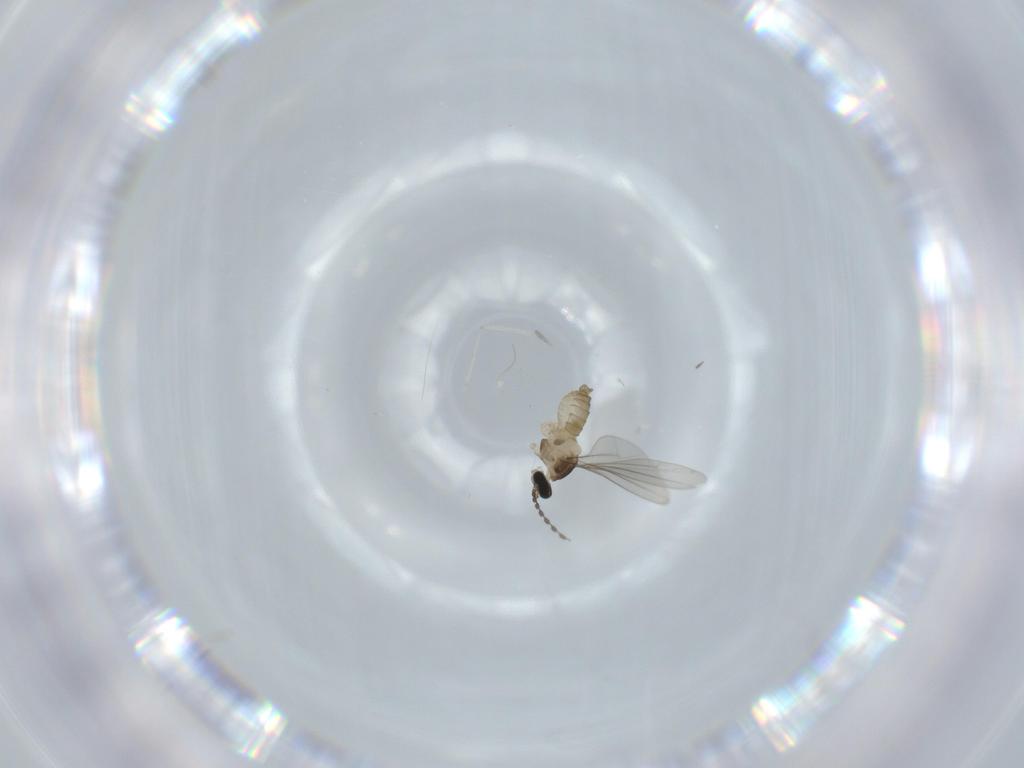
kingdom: Animalia
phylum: Arthropoda
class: Insecta
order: Diptera
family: Cecidomyiidae
